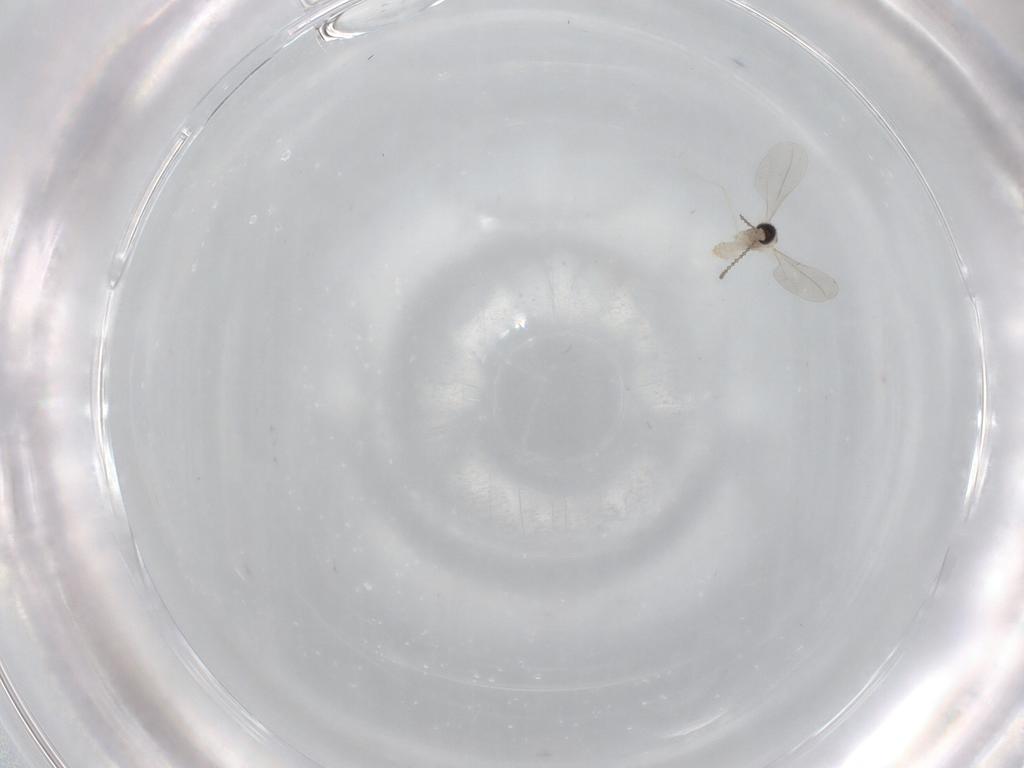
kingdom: Animalia
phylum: Arthropoda
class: Insecta
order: Diptera
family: Cecidomyiidae
